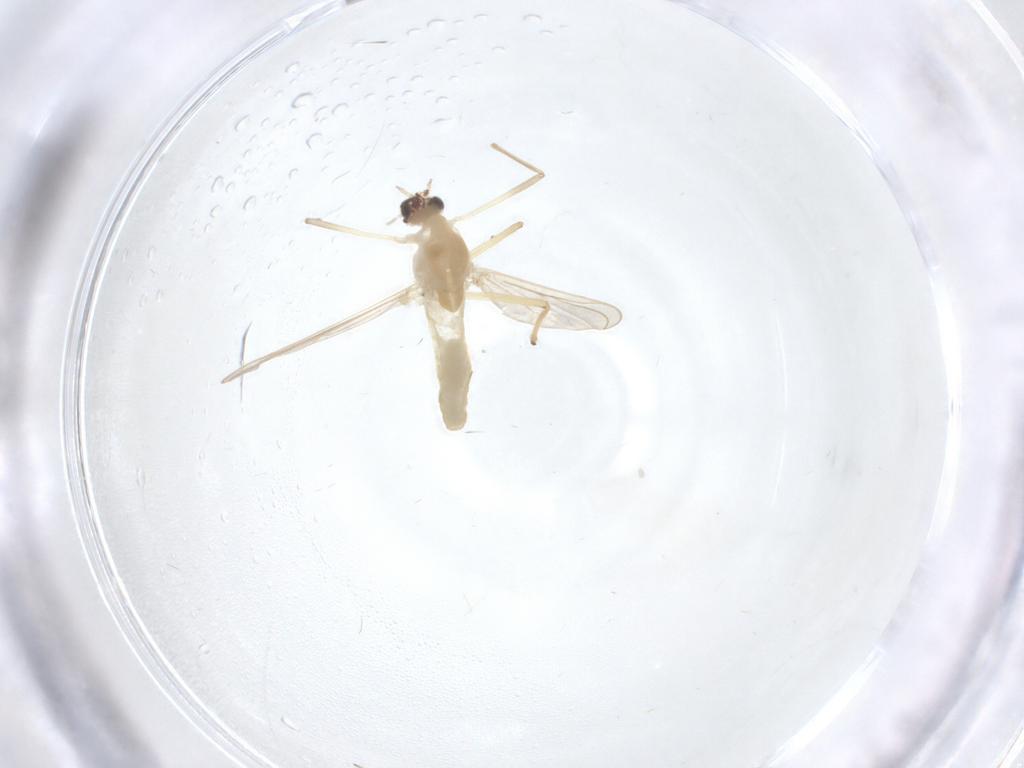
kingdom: Animalia
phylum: Arthropoda
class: Insecta
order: Diptera
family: Chironomidae
